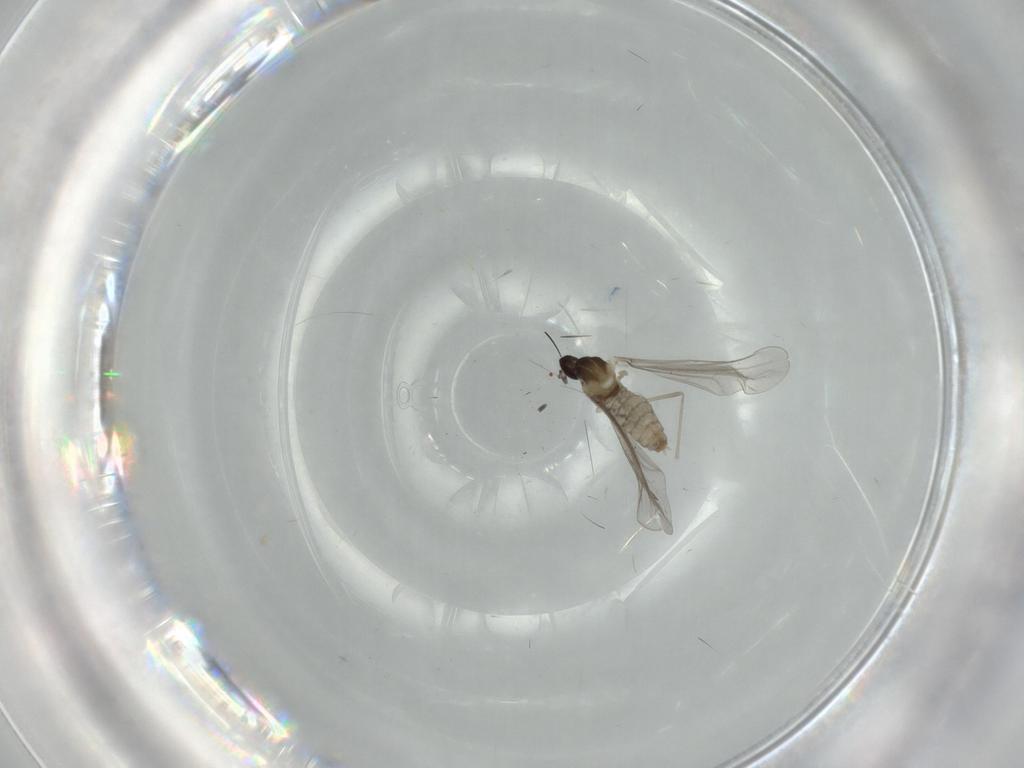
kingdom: Animalia
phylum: Arthropoda
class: Insecta
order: Diptera
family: Cecidomyiidae
